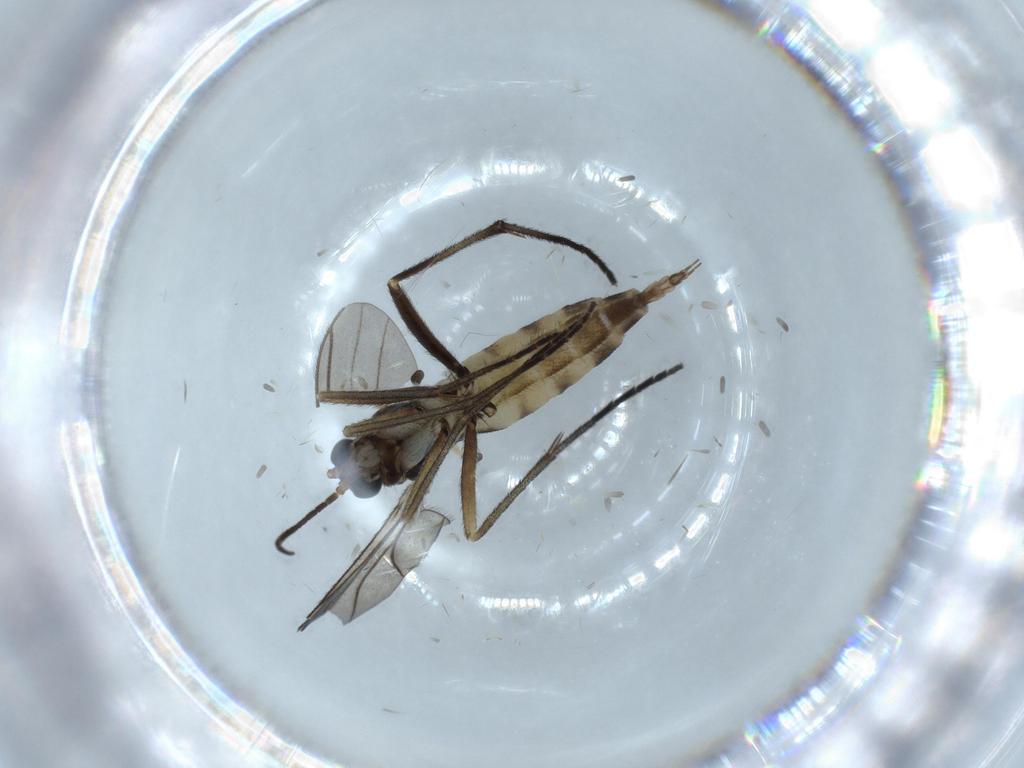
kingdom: Animalia
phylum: Arthropoda
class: Insecta
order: Diptera
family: Sciaridae
